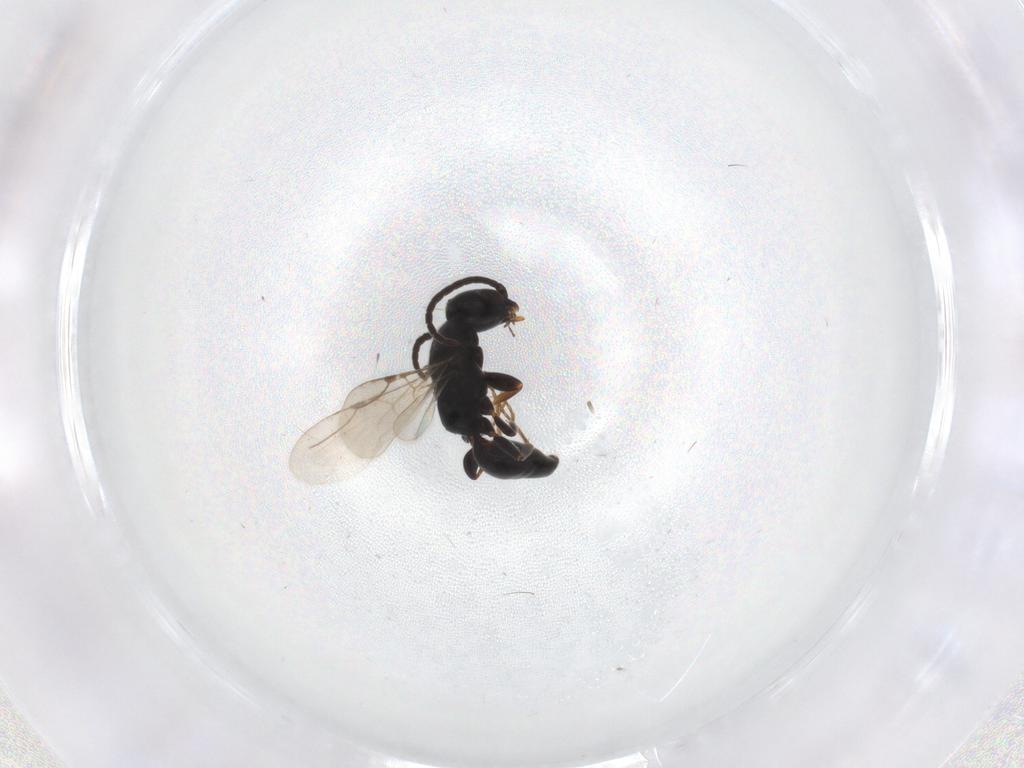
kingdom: Animalia
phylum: Arthropoda
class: Insecta
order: Hymenoptera
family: Bethylidae
